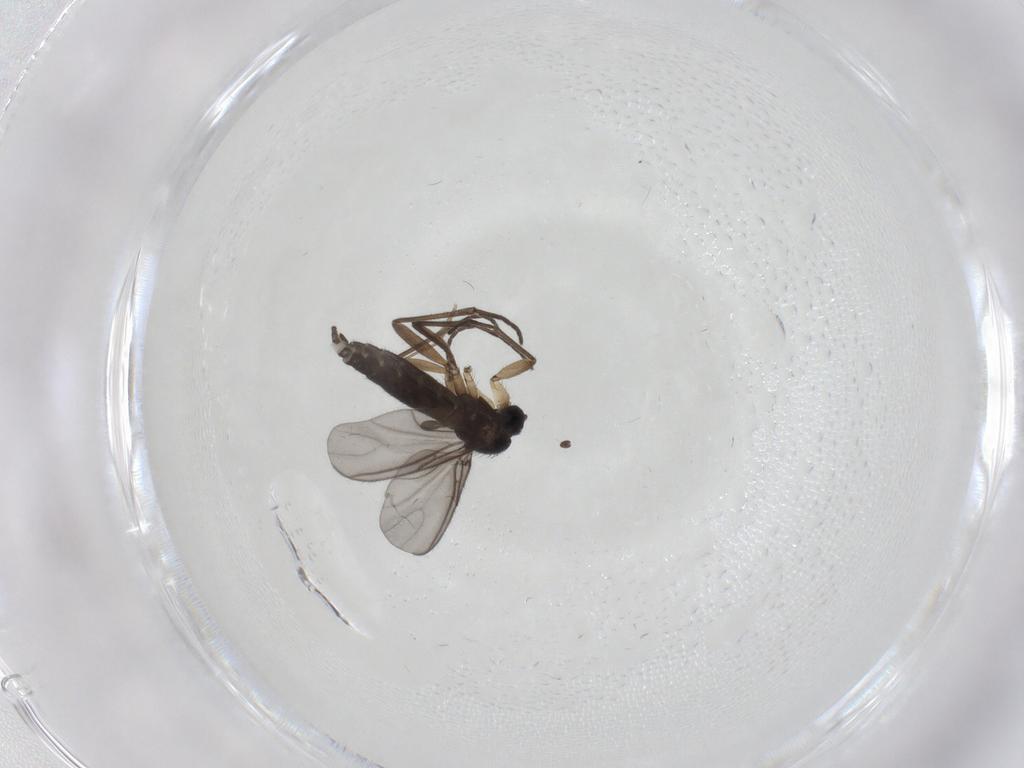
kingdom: Animalia
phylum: Arthropoda
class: Insecta
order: Diptera
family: Chironomidae
